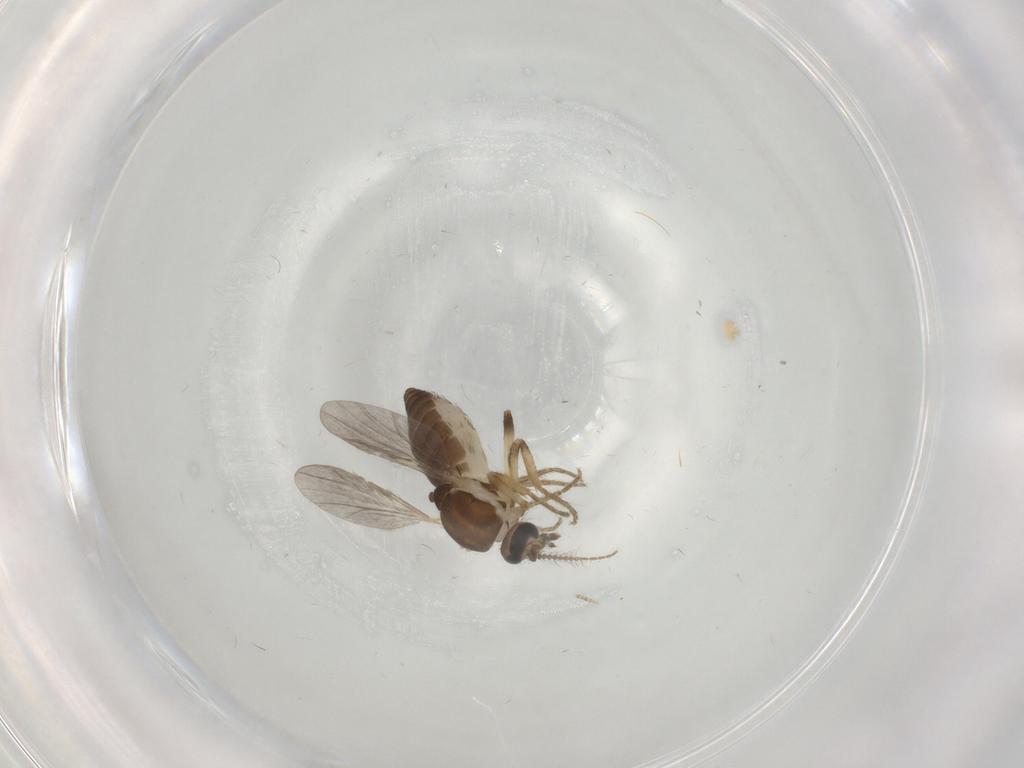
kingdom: Animalia
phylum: Arthropoda
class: Insecta
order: Diptera
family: Ceratopogonidae
